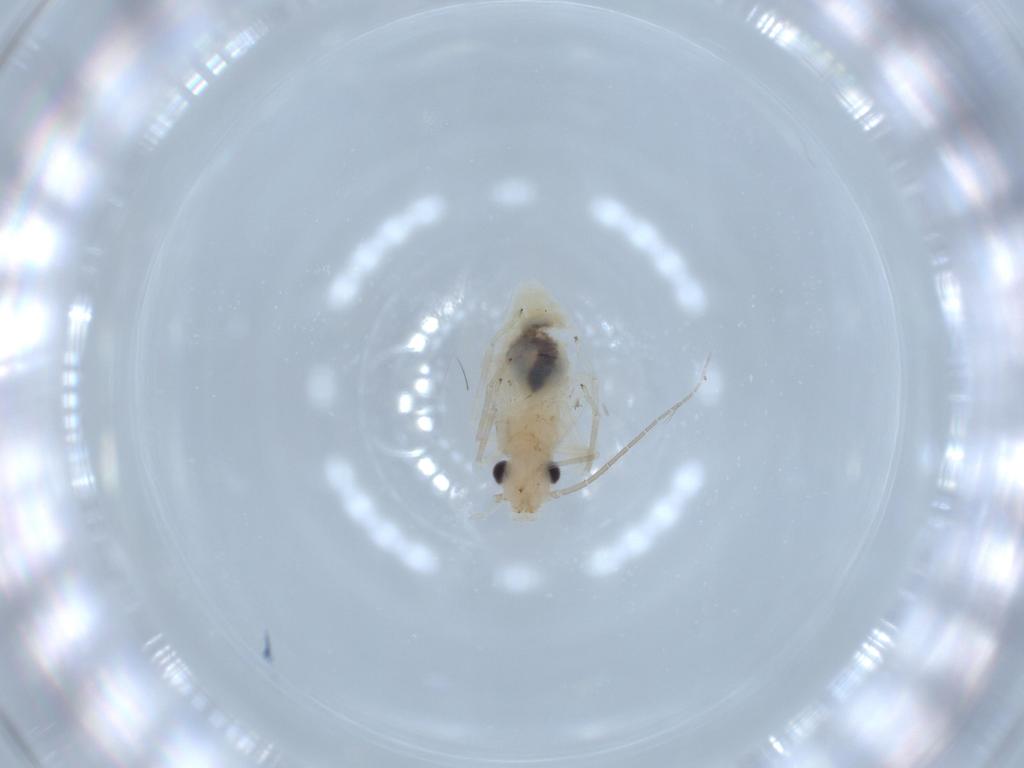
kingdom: Animalia
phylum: Arthropoda
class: Insecta
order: Psocodea
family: Caeciliusidae
